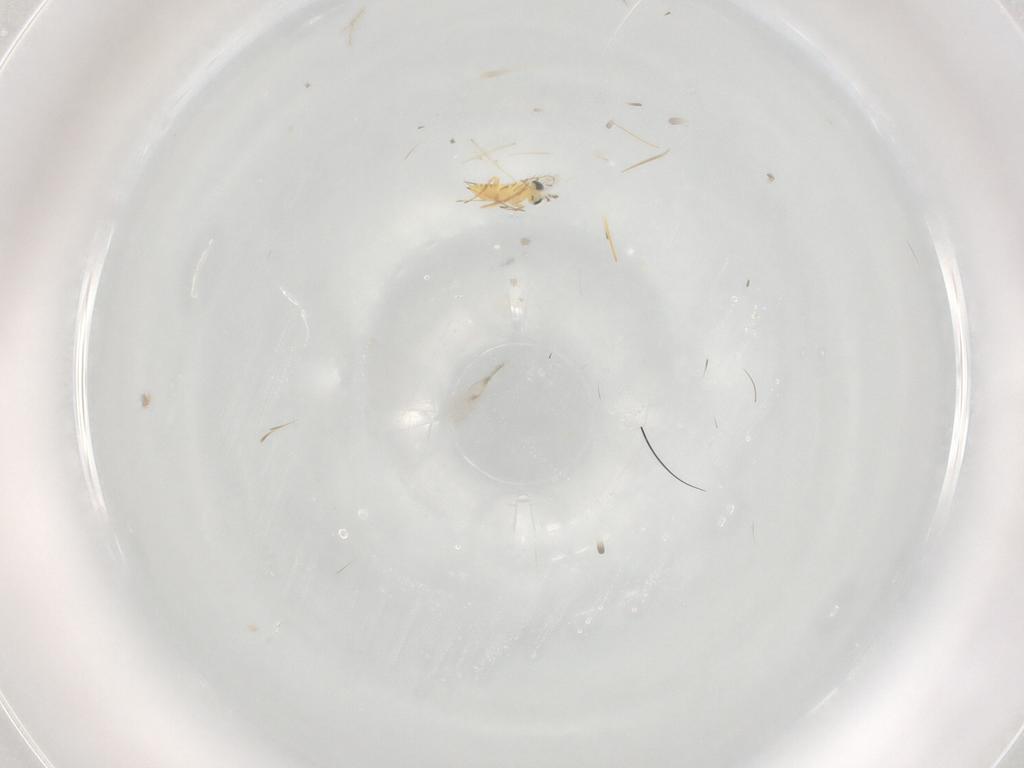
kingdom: Animalia
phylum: Arthropoda
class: Insecta
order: Hymenoptera
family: Trichogrammatidae
